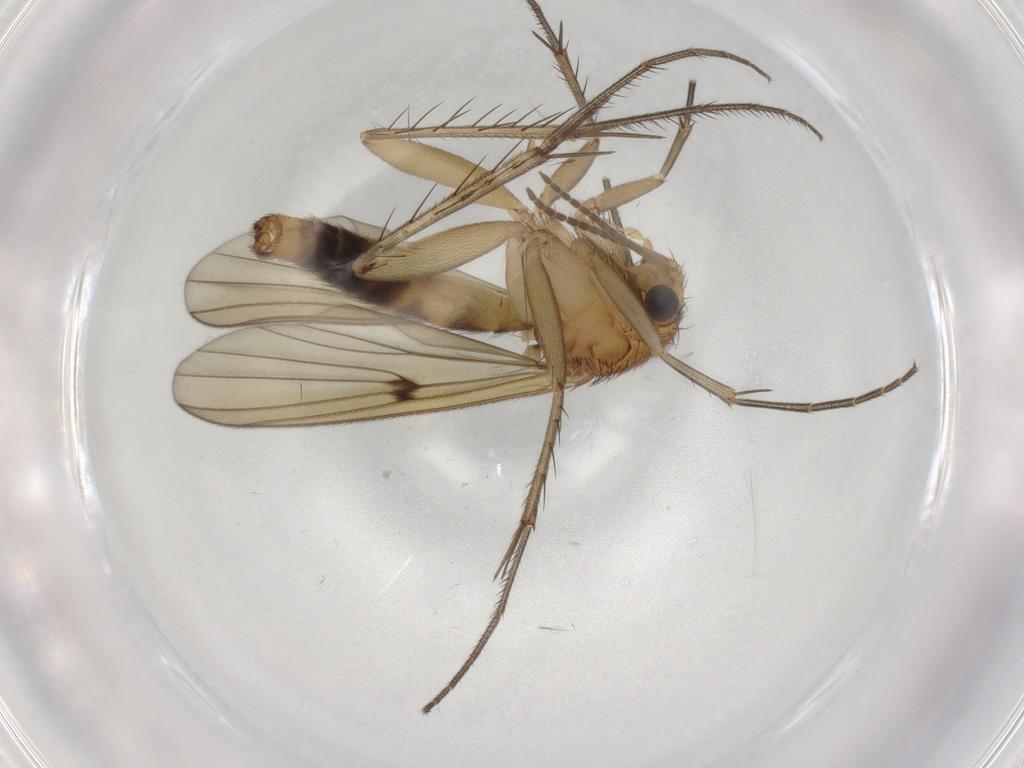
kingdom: Animalia
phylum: Arthropoda
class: Insecta
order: Diptera
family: Mycetophilidae
